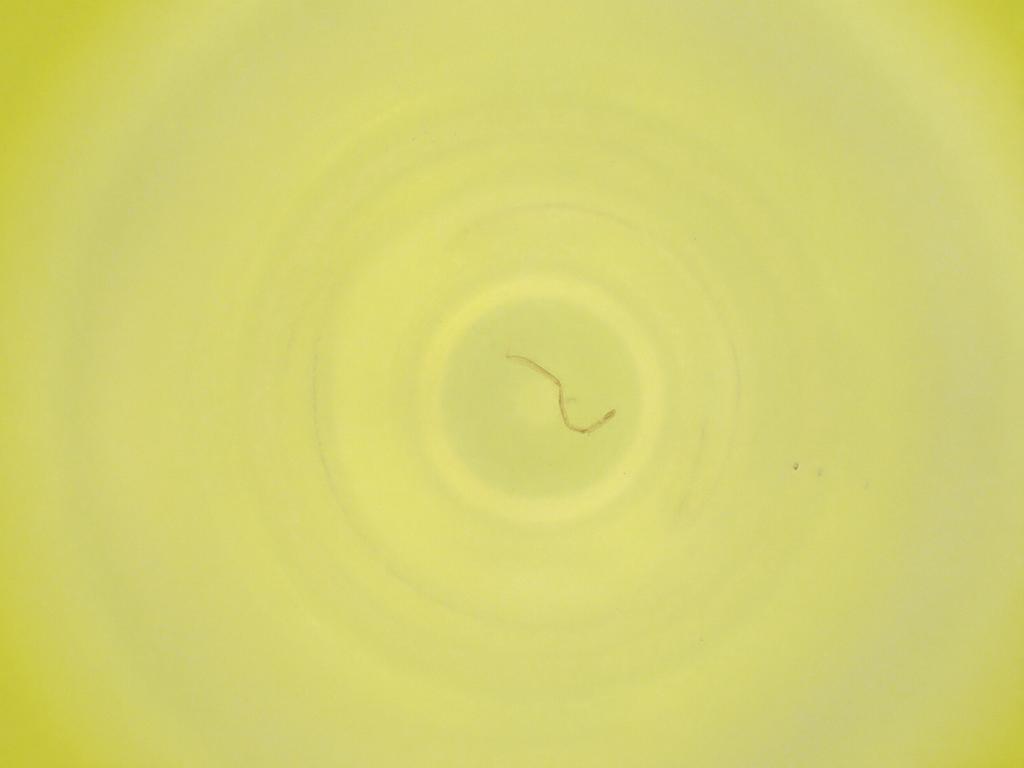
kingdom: Animalia
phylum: Arthropoda
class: Insecta
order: Diptera
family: Cecidomyiidae
